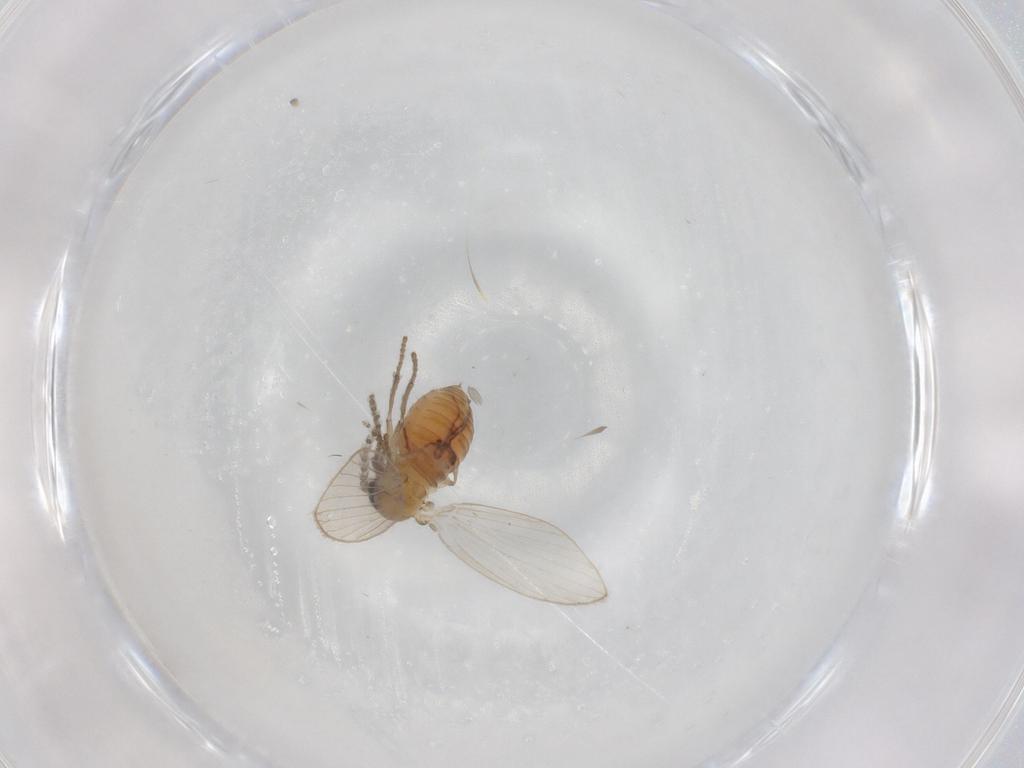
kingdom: Animalia
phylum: Arthropoda
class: Insecta
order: Diptera
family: Psychodidae
